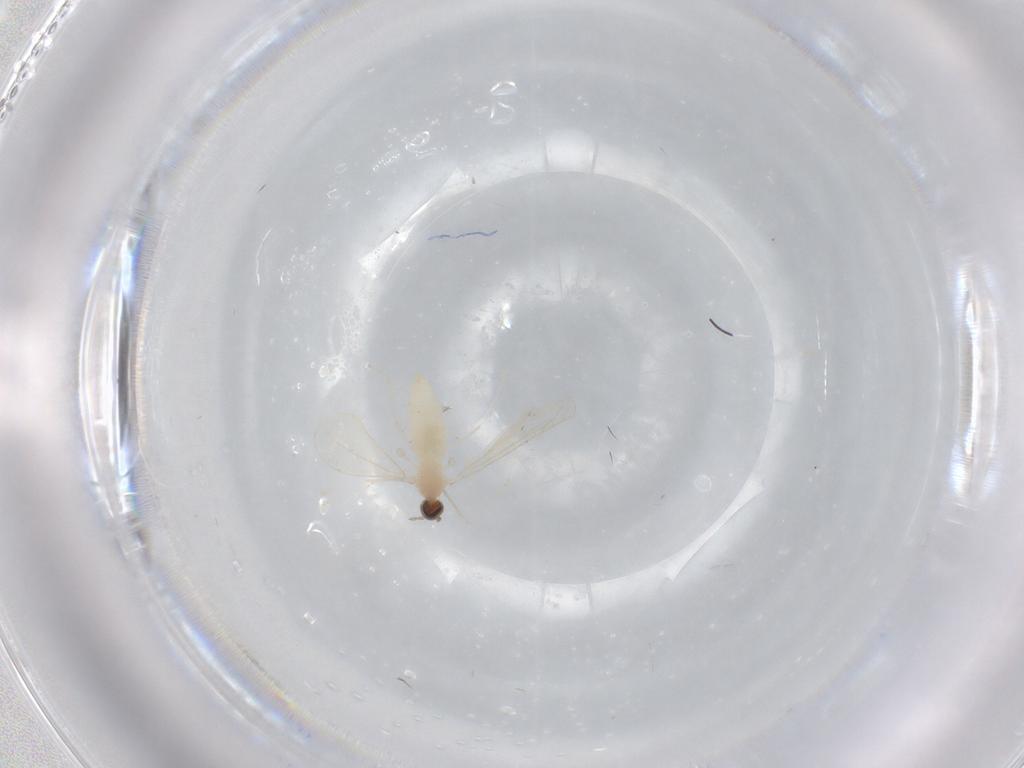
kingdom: Animalia
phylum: Arthropoda
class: Insecta
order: Diptera
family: Cecidomyiidae
